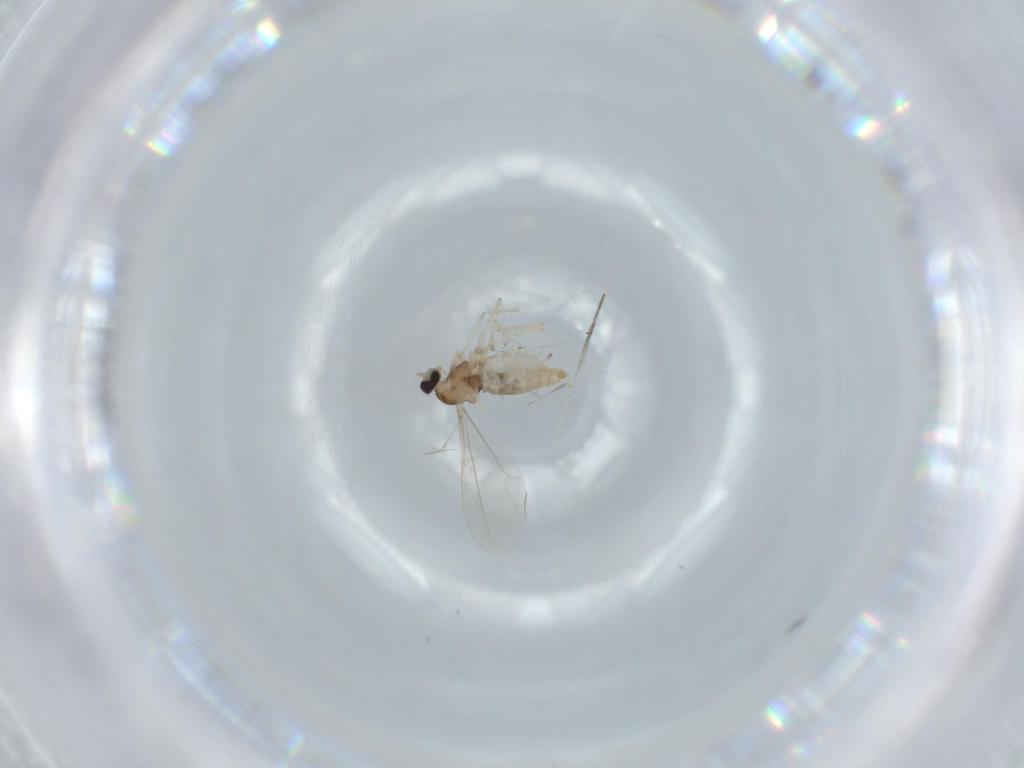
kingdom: Animalia
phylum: Arthropoda
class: Insecta
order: Diptera
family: Cecidomyiidae
